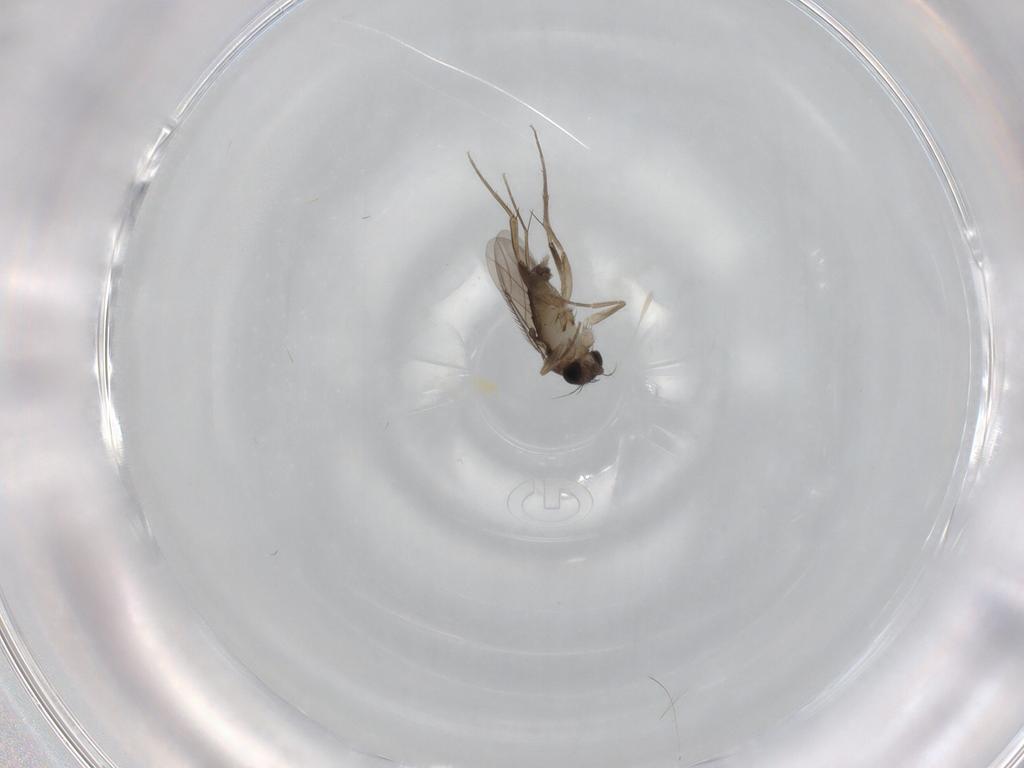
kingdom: Animalia
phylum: Arthropoda
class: Insecta
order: Diptera
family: Phoridae
